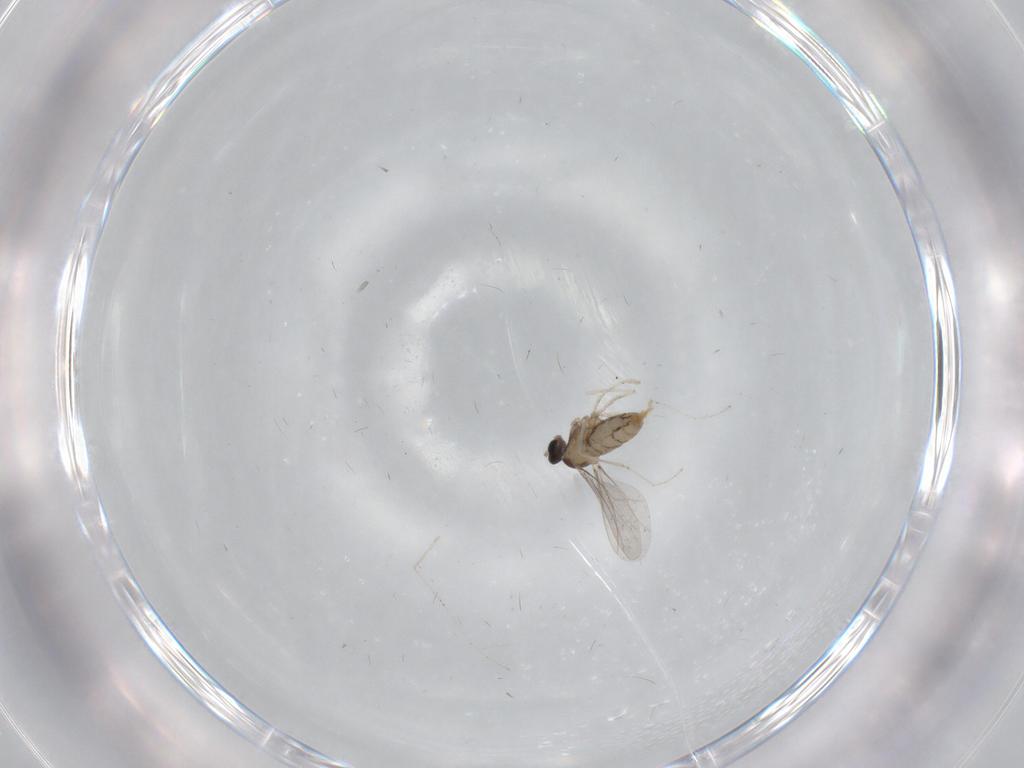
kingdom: Animalia
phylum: Arthropoda
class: Insecta
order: Diptera
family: Cecidomyiidae
